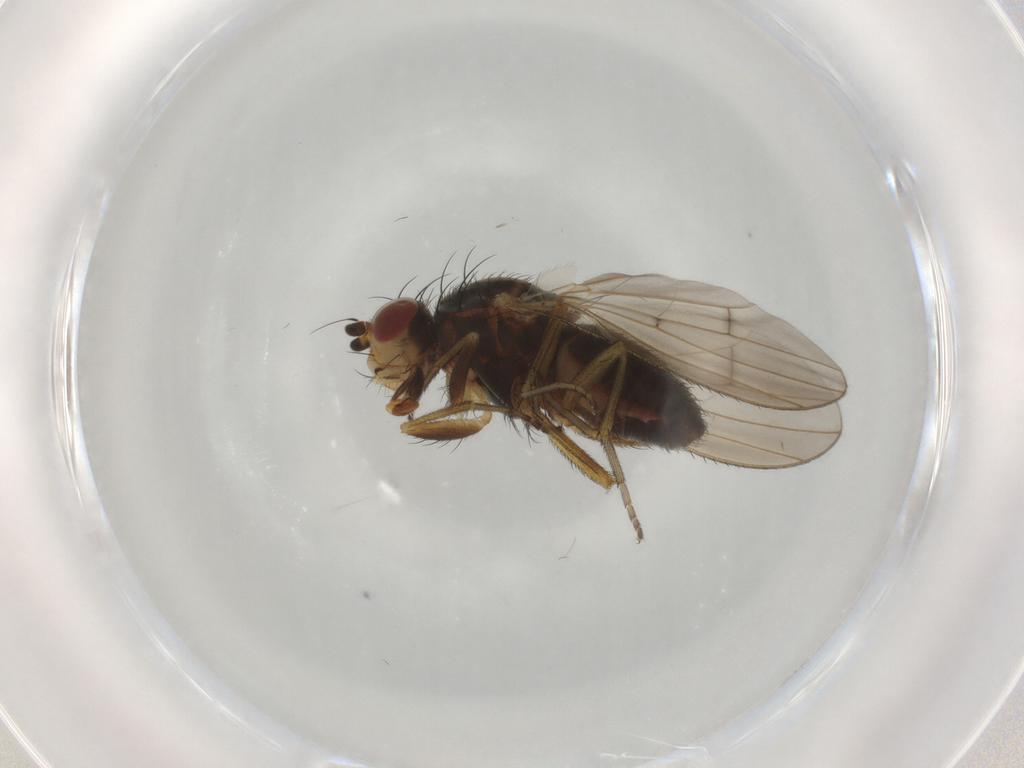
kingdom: Animalia
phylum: Arthropoda
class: Insecta
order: Diptera
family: Heleomyzidae
